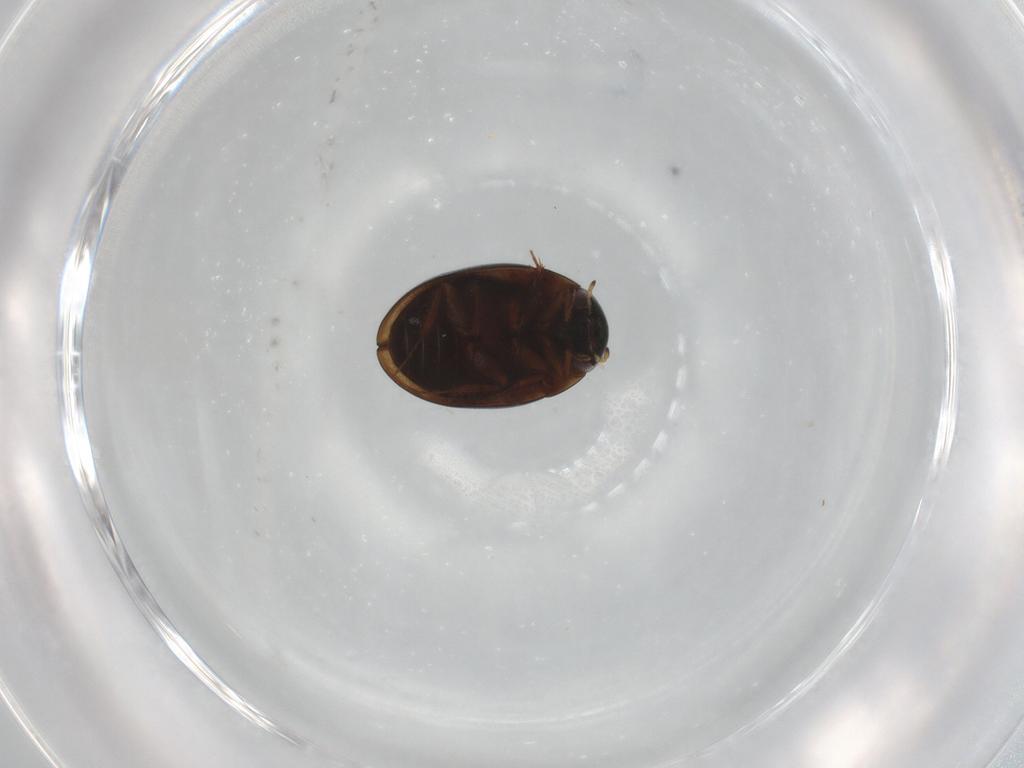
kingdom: Animalia
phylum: Arthropoda
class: Insecta
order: Coleoptera
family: Hydrophilidae
